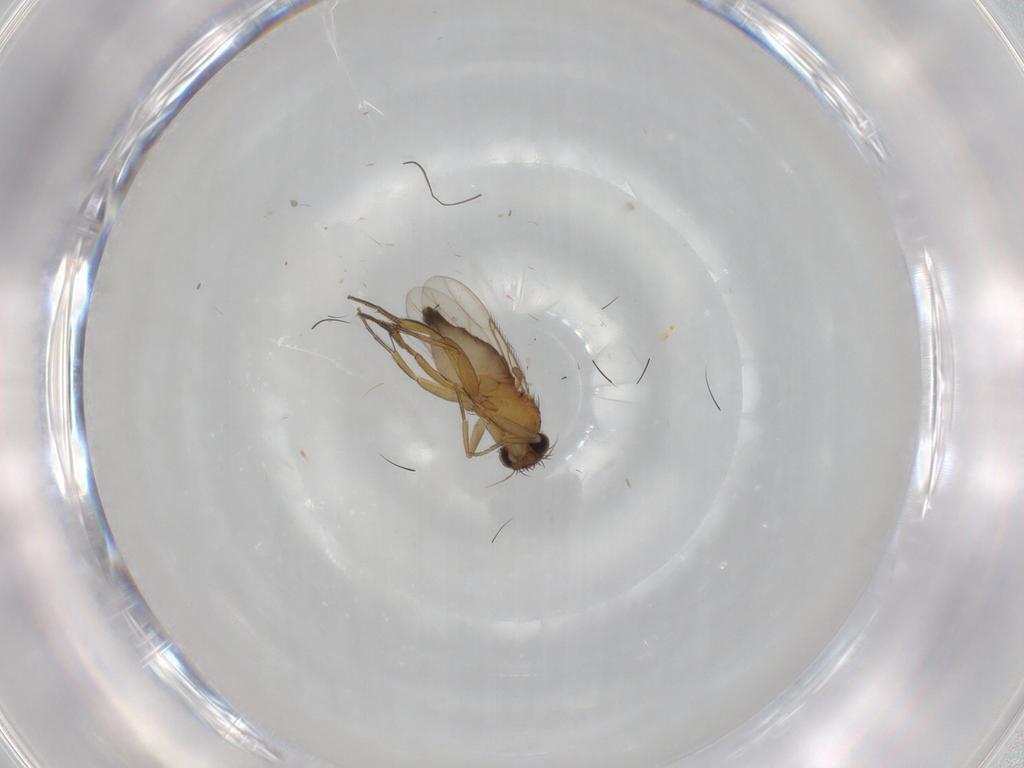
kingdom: Animalia
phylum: Arthropoda
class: Insecta
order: Diptera
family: Phoridae
